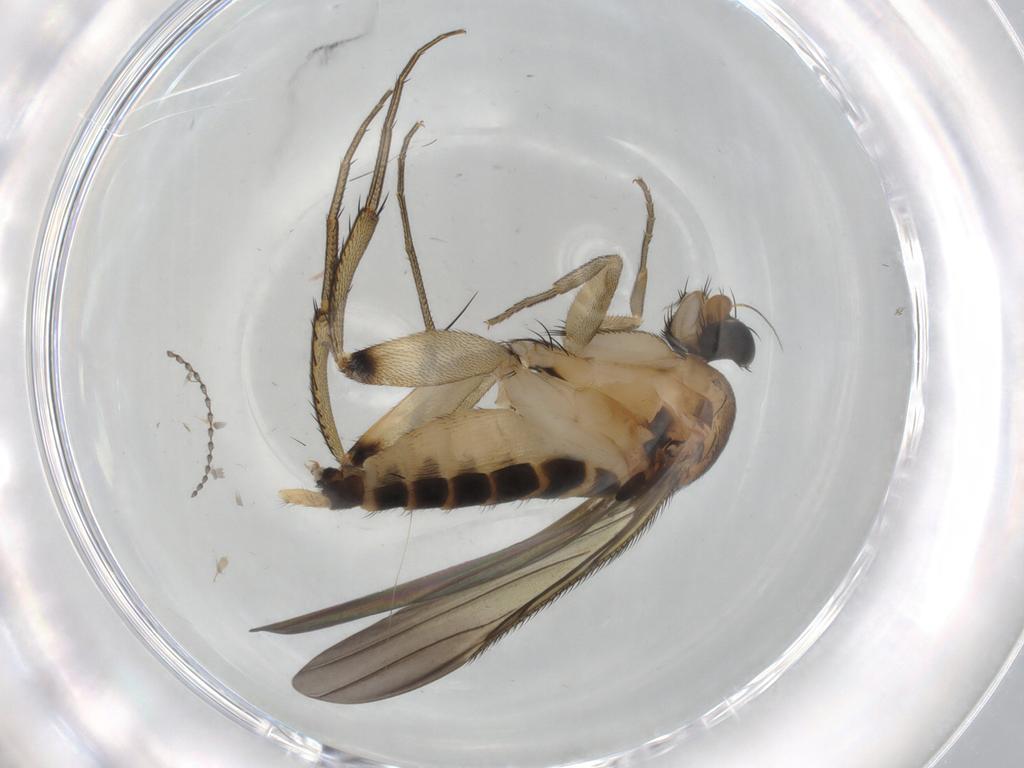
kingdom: Animalia
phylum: Arthropoda
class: Insecta
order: Diptera
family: Phoridae
